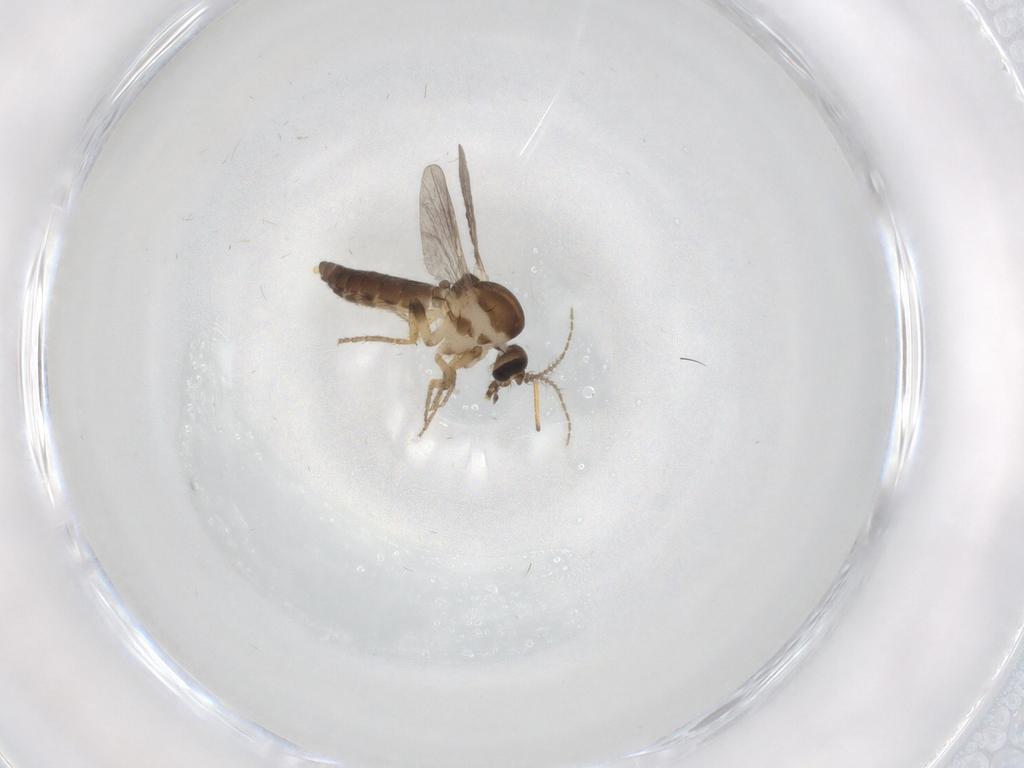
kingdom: Animalia
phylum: Arthropoda
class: Insecta
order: Diptera
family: Ceratopogonidae
